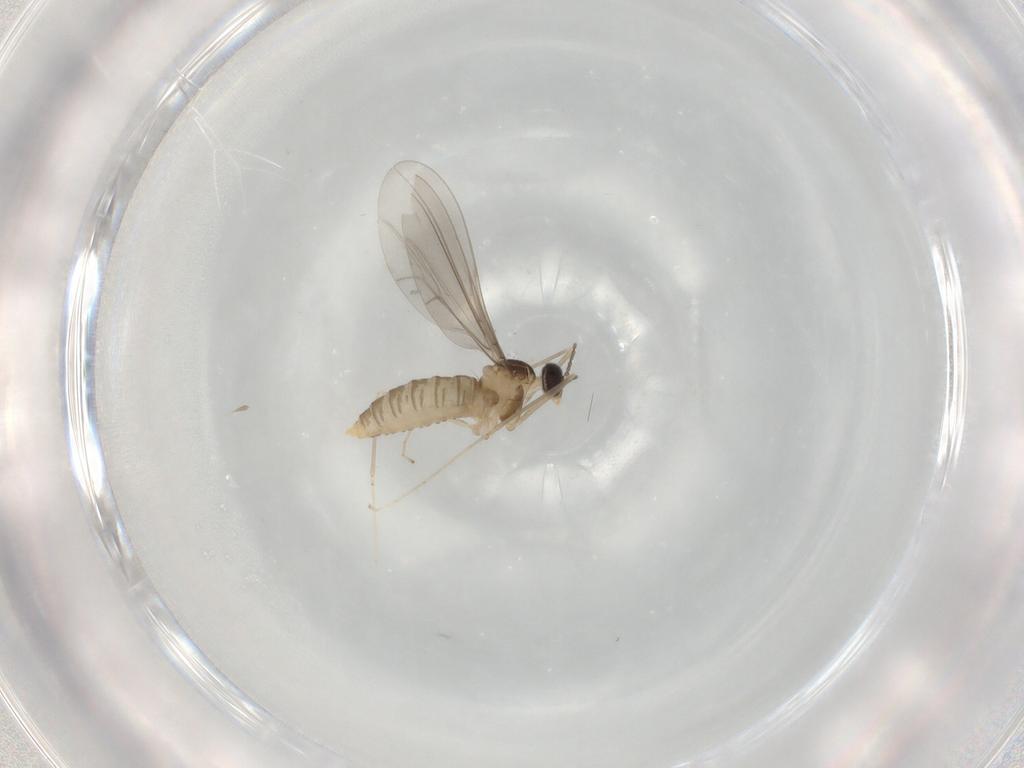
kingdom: Animalia
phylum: Arthropoda
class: Insecta
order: Diptera
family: Cecidomyiidae
